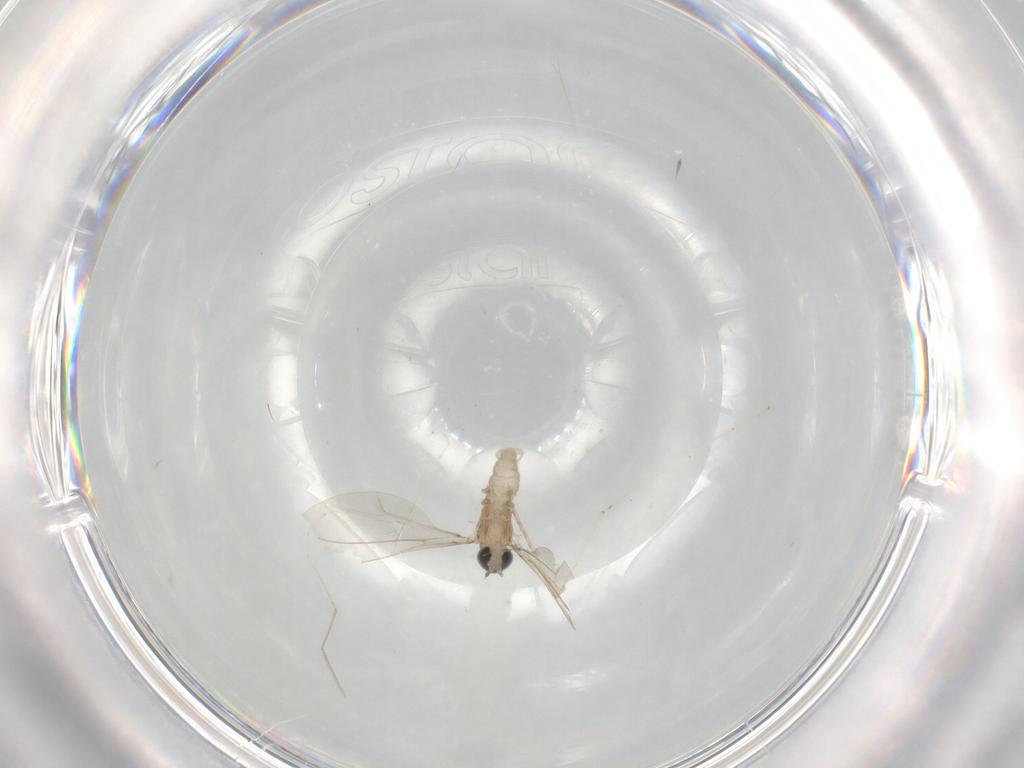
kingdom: Animalia
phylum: Arthropoda
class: Insecta
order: Diptera
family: Cecidomyiidae
